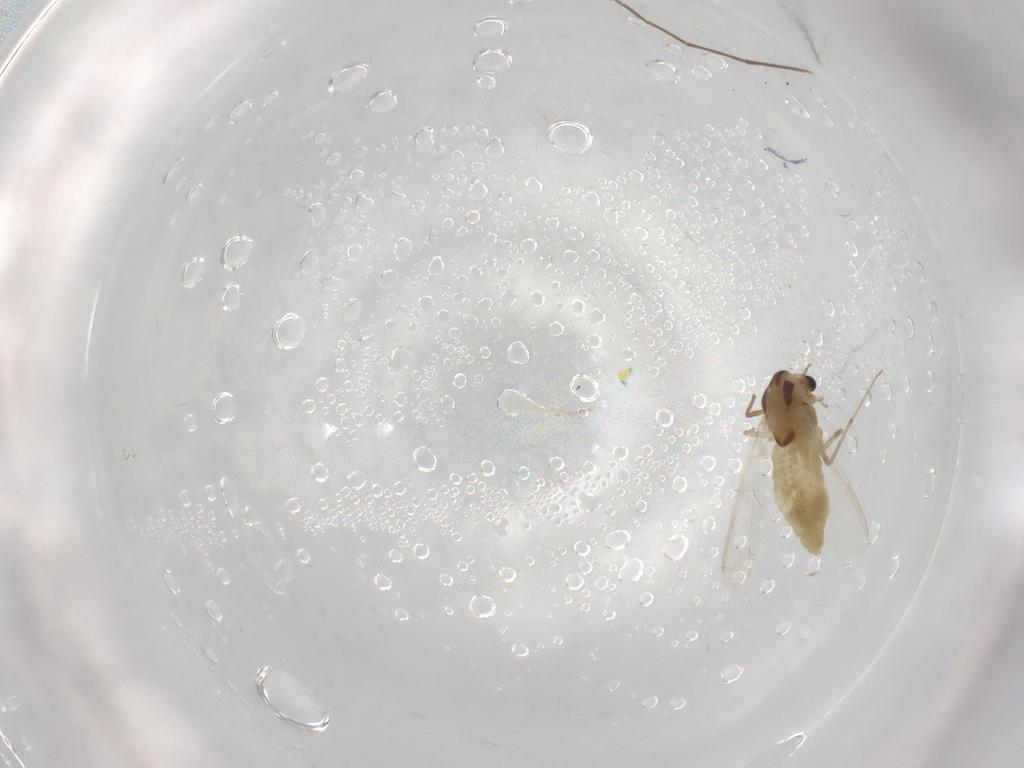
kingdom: Animalia
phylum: Arthropoda
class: Insecta
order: Diptera
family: Chironomidae
